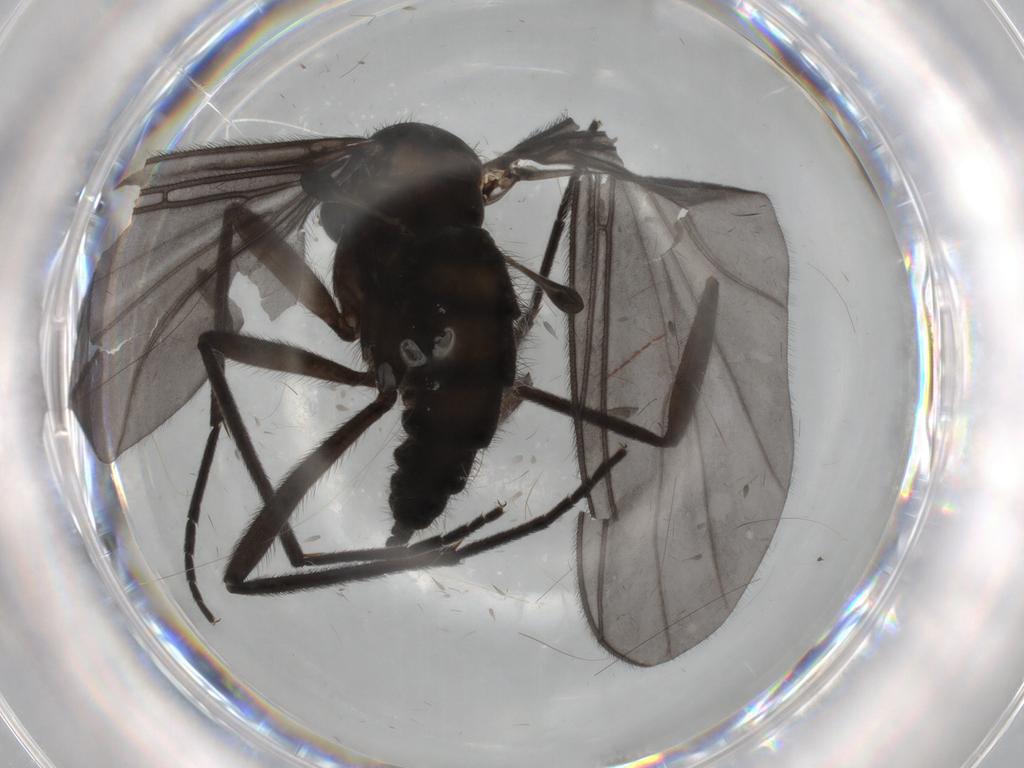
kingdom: Animalia
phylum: Arthropoda
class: Insecta
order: Diptera
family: Sciaridae
